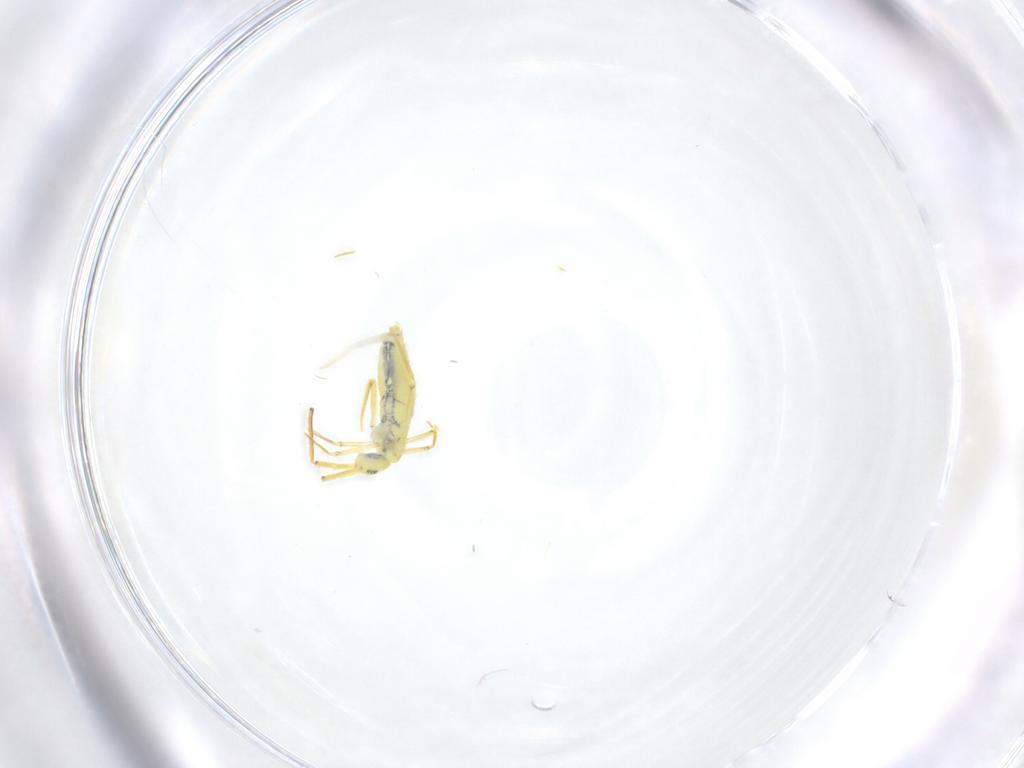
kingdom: Animalia
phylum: Arthropoda
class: Collembola
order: Entomobryomorpha
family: Entomobryidae
